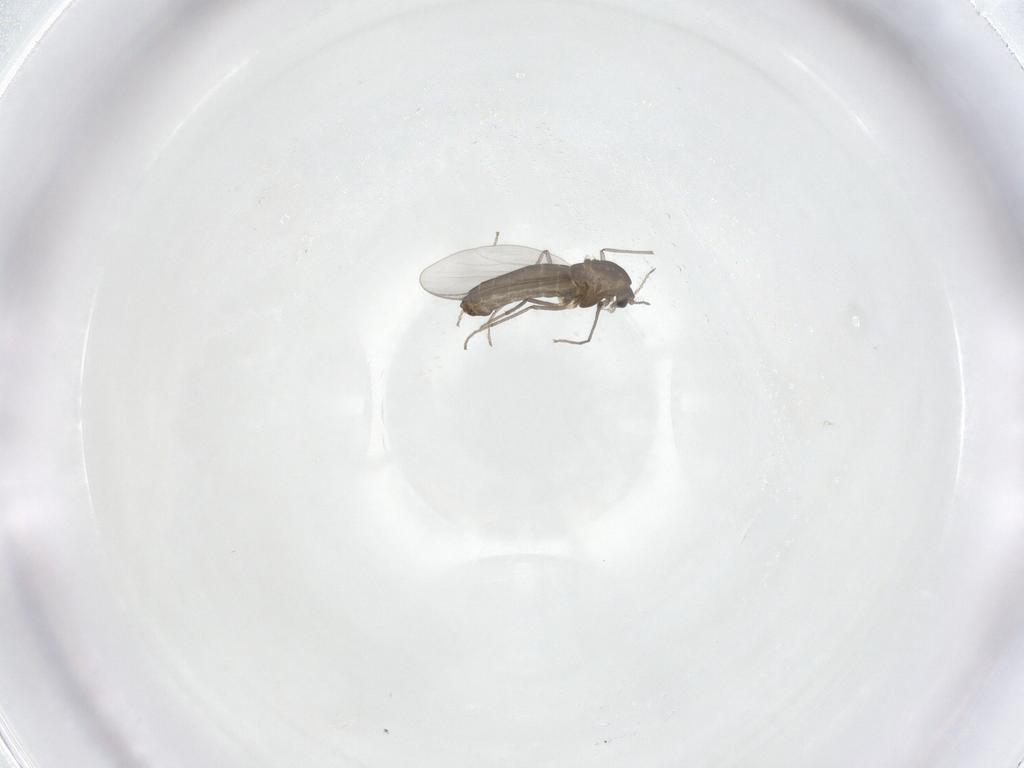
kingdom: Animalia
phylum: Arthropoda
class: Insecta
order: Diptera
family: Chironomidae
